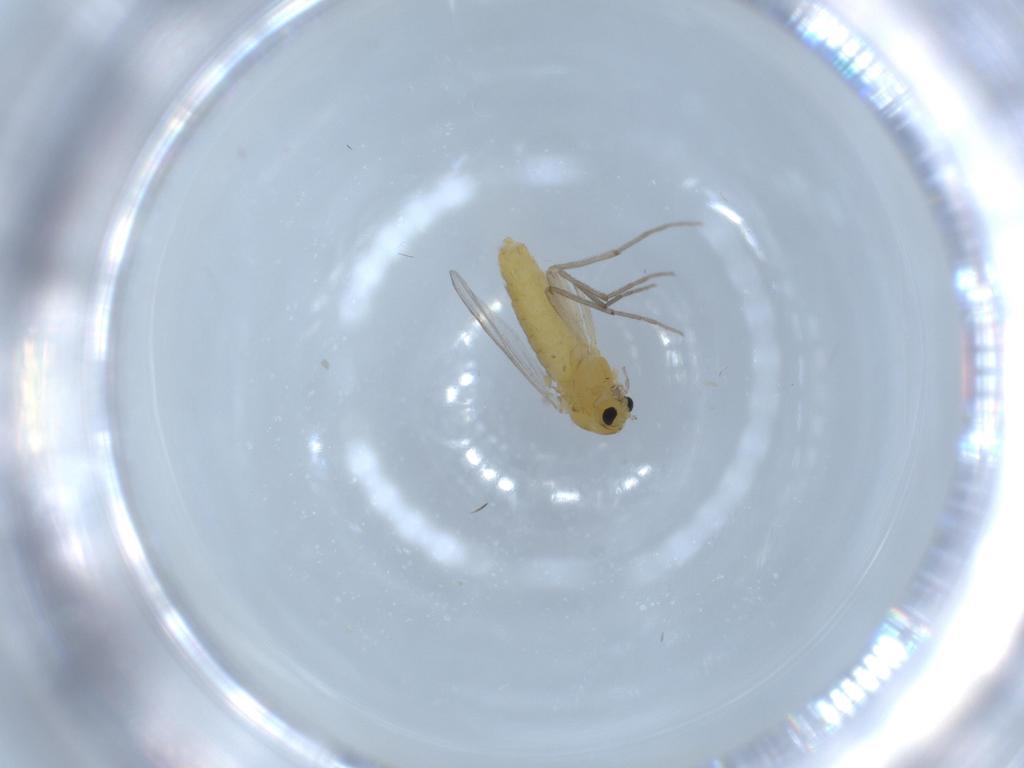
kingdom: Animalia
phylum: Arthropoda
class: Insecta
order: Diptera
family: Chironomidae
